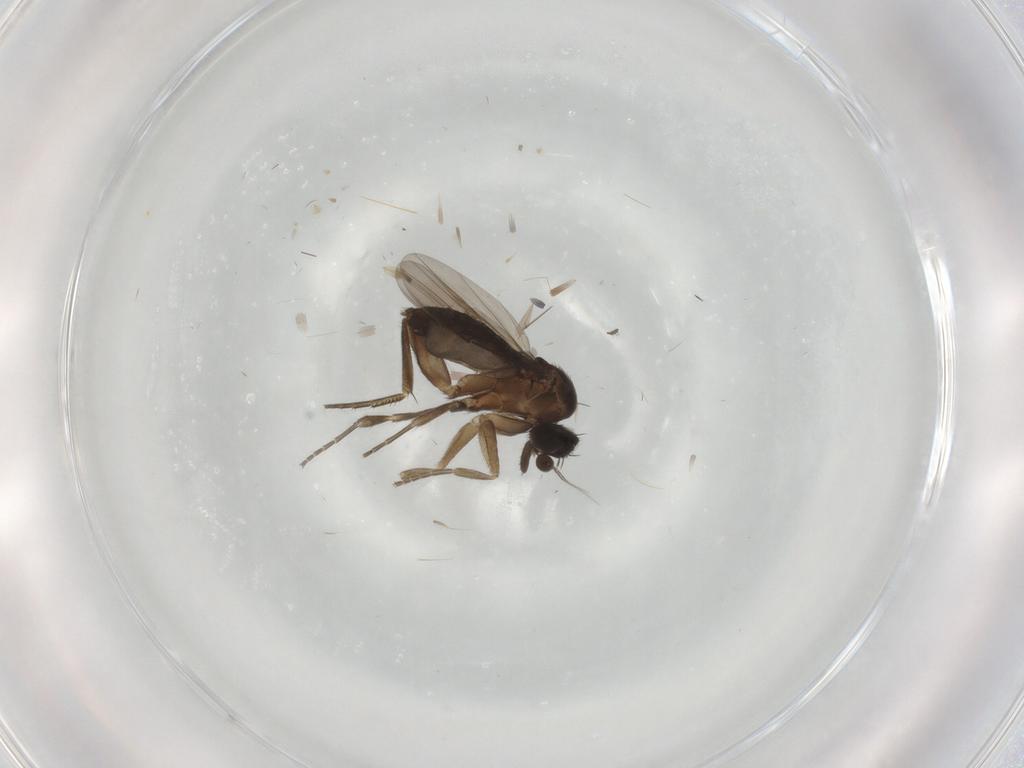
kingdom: Animalia
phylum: Arthropoda
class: Insecta
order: Diptera
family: Phoridae
